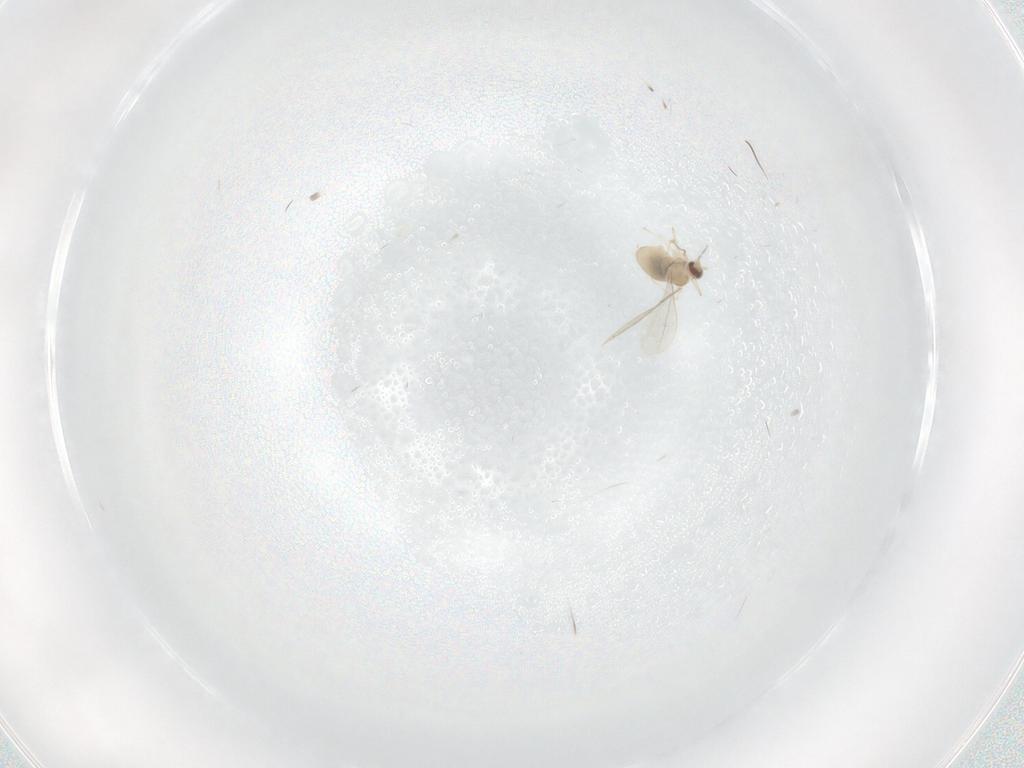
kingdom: Animalia
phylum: Arthropoda
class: Insecta
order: Diptera
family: Cecidomyiidae
